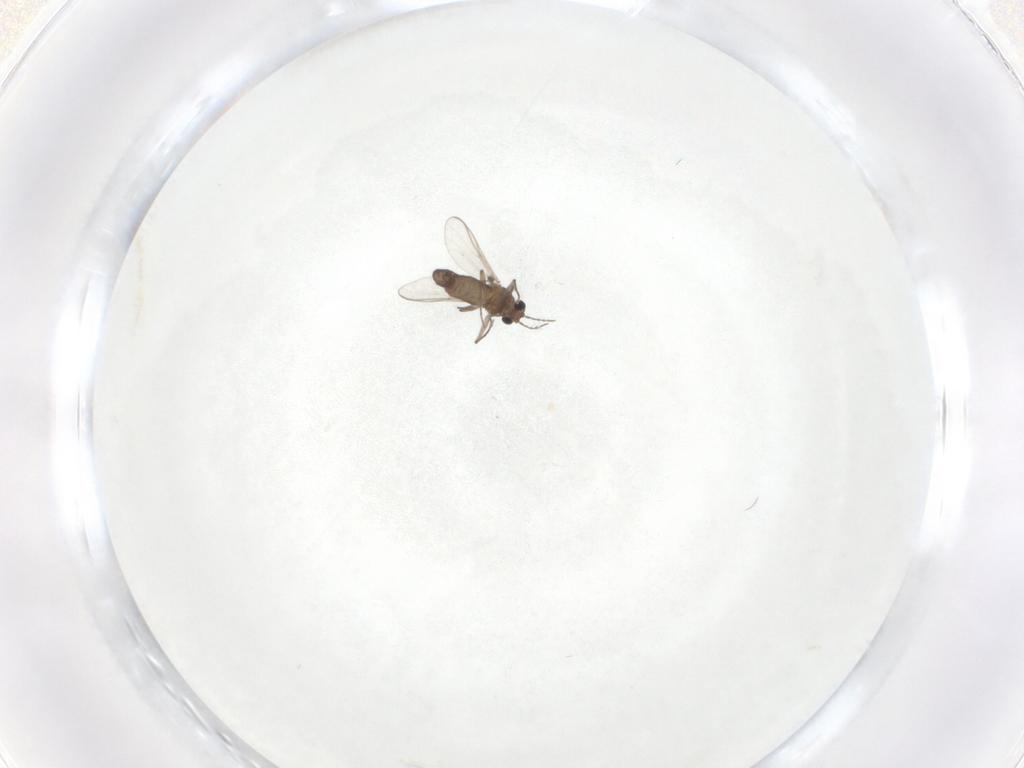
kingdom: Animalia
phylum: Arthropoda
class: Insecta
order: Diptera
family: Chironomidae
